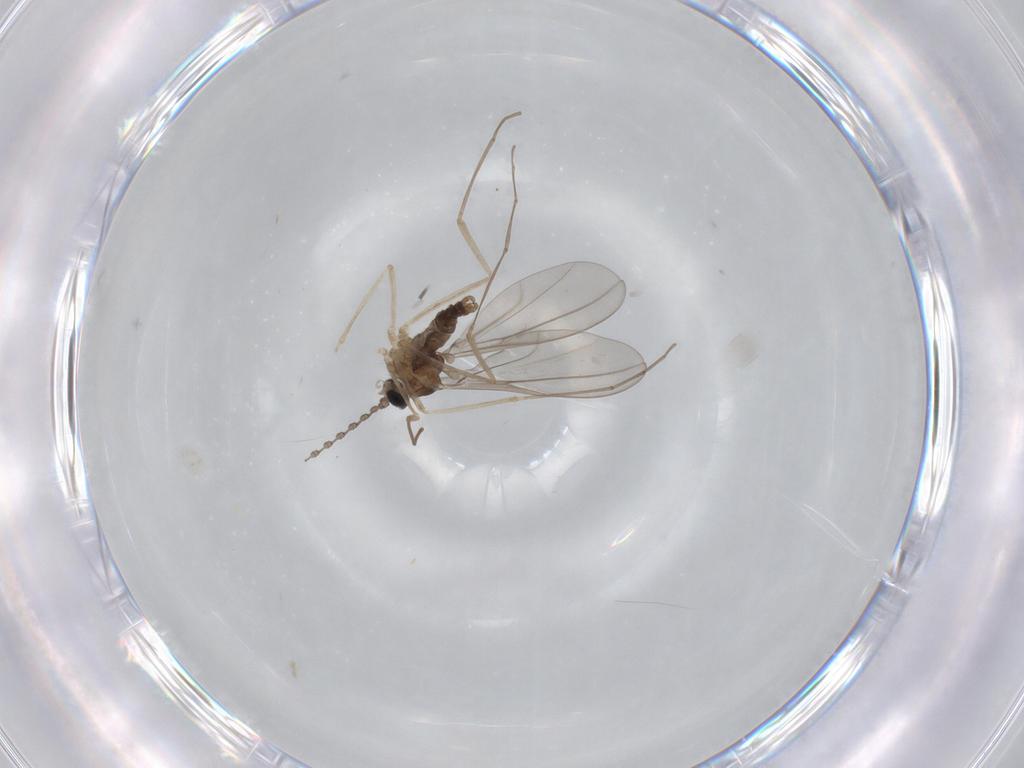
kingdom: Animalia
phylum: Arthropoda
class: Insecta
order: Diptera
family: Cecidomyiidae
